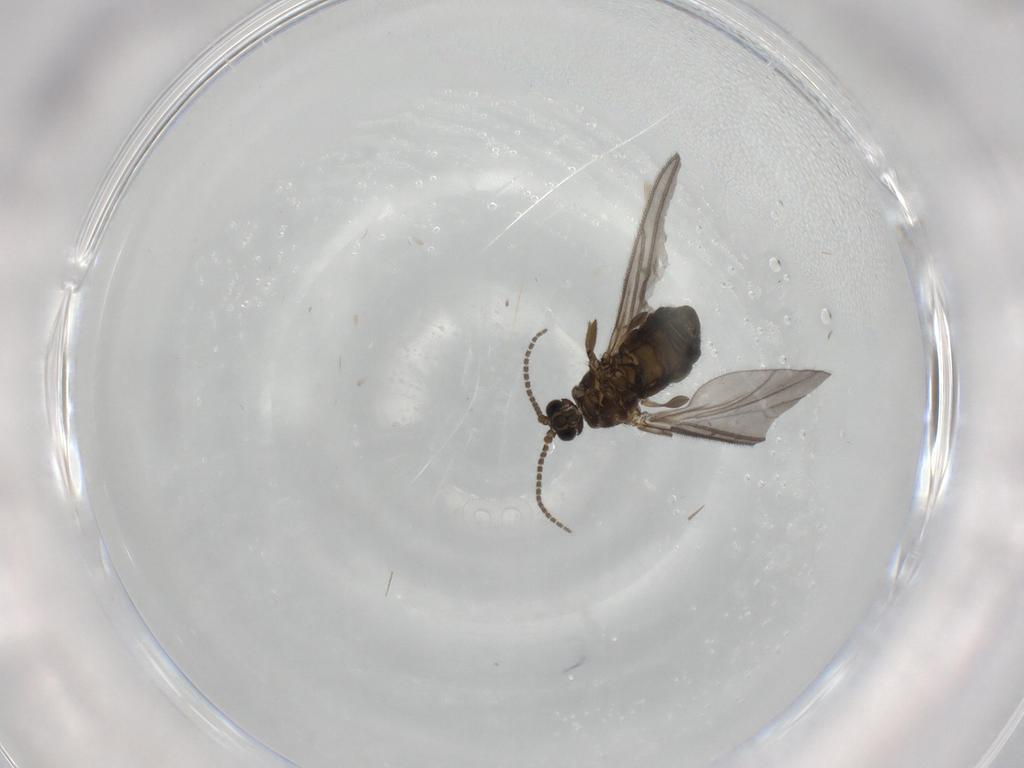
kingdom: Animalia
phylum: Arthropoda
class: Insecta
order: Diptera
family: Sciaridae
